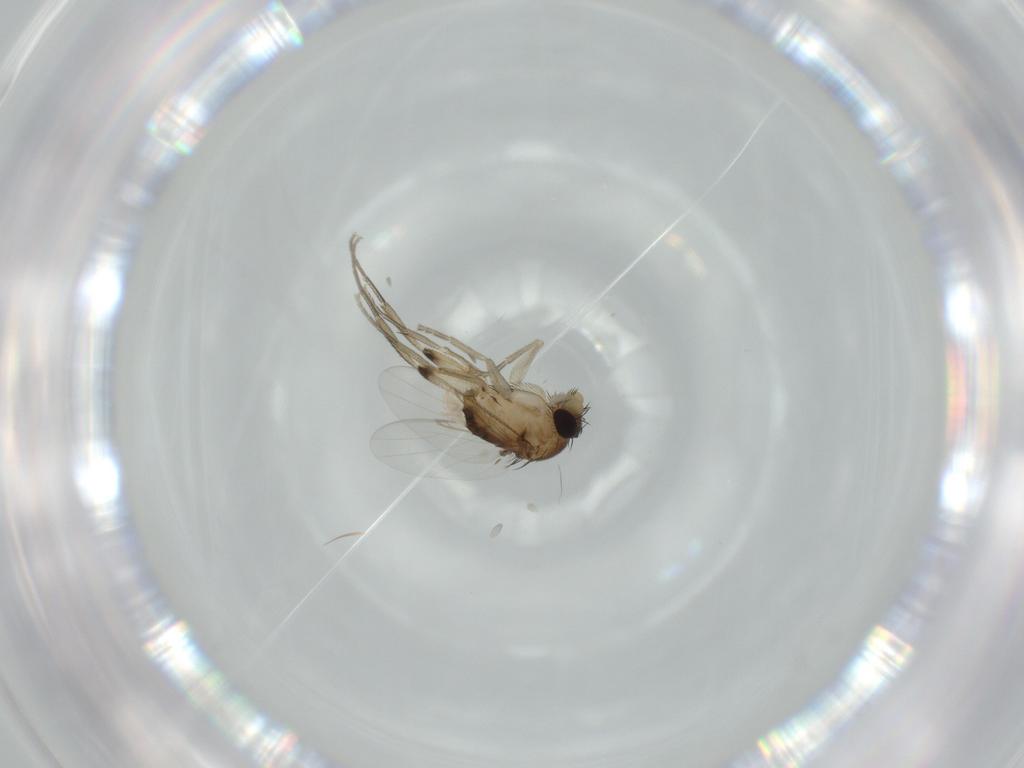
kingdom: Animalia
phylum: Arthropoda
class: Insecta
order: Diptera
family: Phoridae
